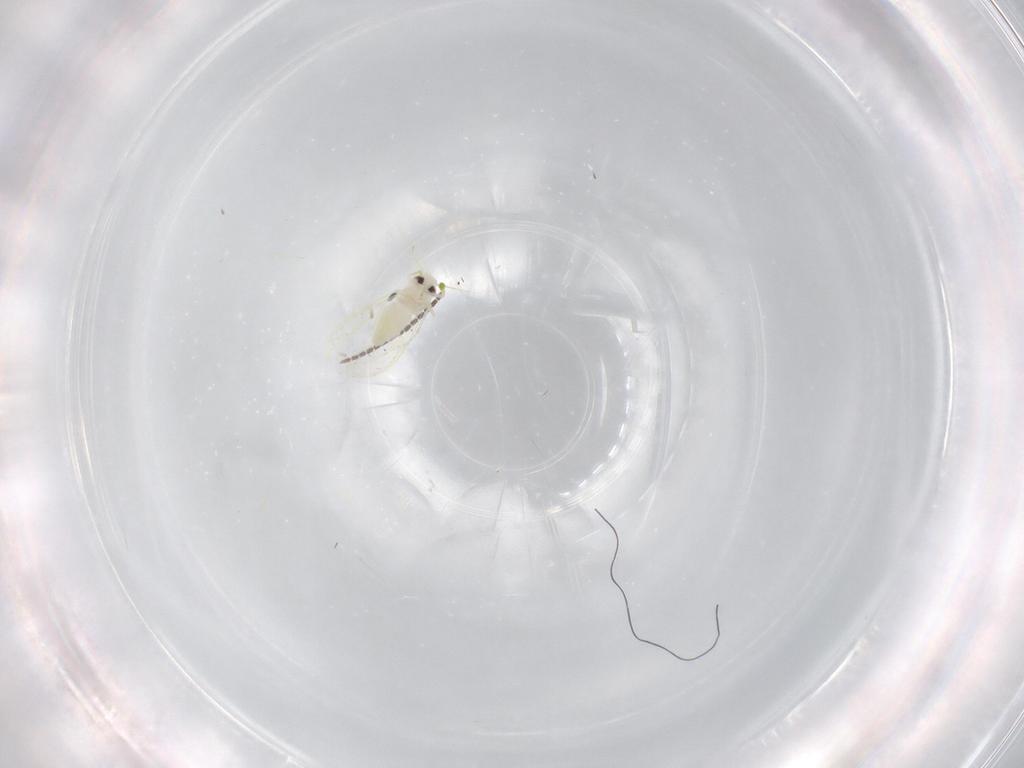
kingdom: Animalia
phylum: Arthropoda
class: Insecta
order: Hemiptera
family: Aleyrodidae
